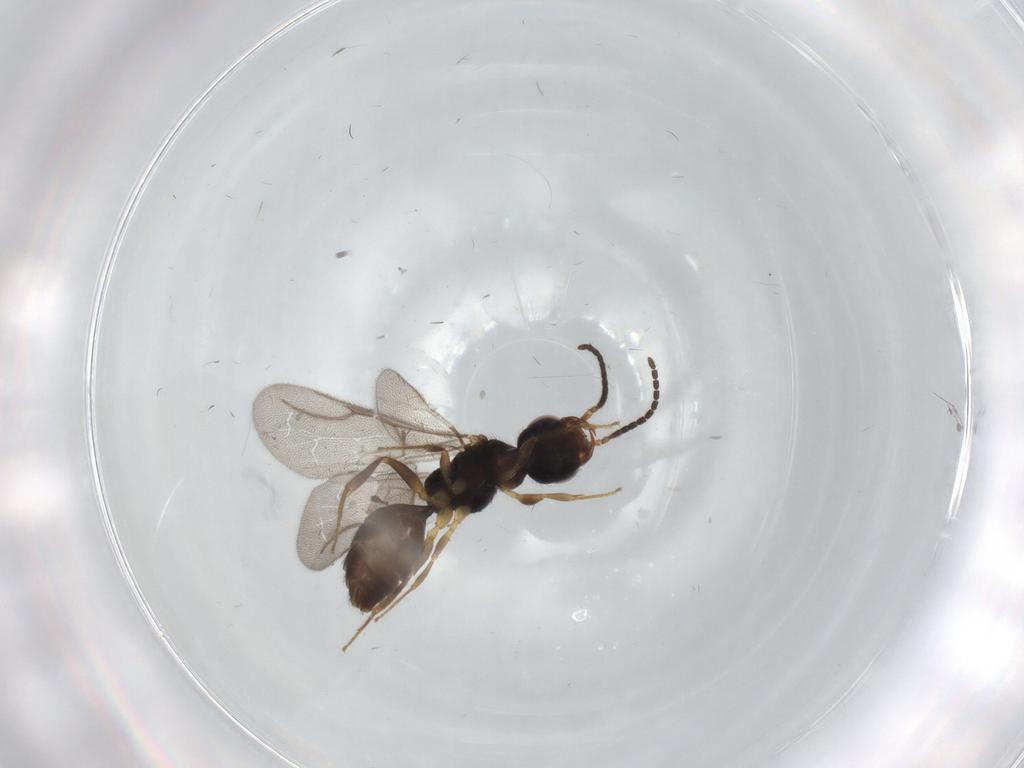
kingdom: Animalia
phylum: Arthropoda
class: Insecta
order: Hymenoptera
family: Bethylidae
